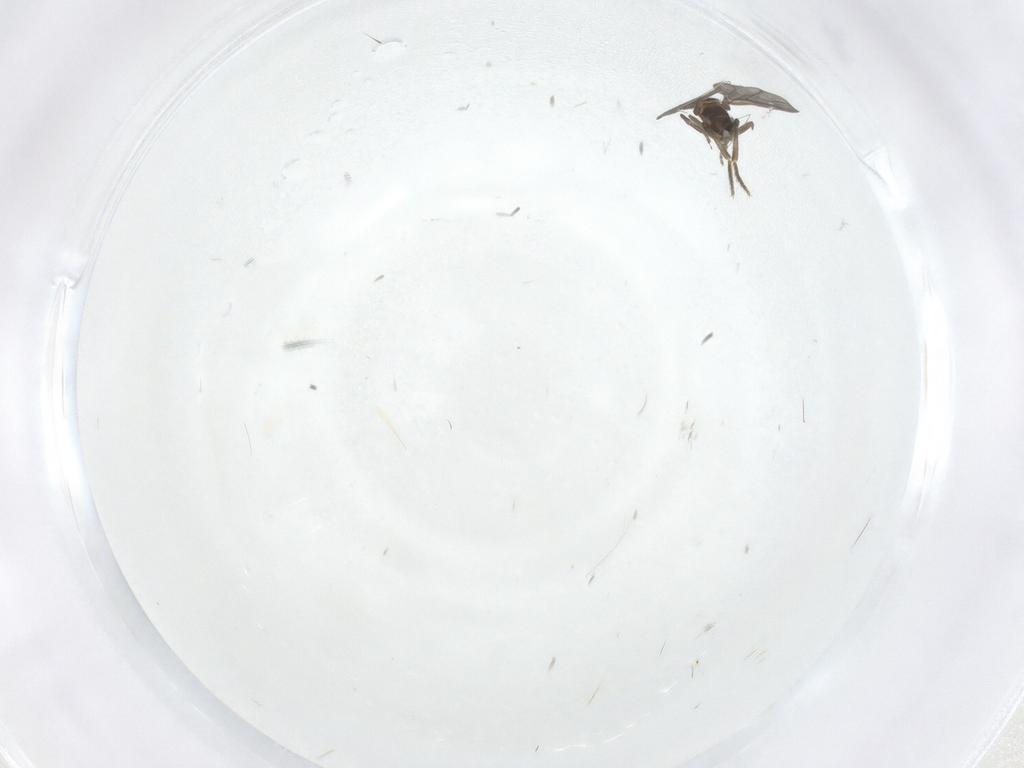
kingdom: Animalia
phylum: Arthropoda
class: Insecta
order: Diptera
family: Phoridae
